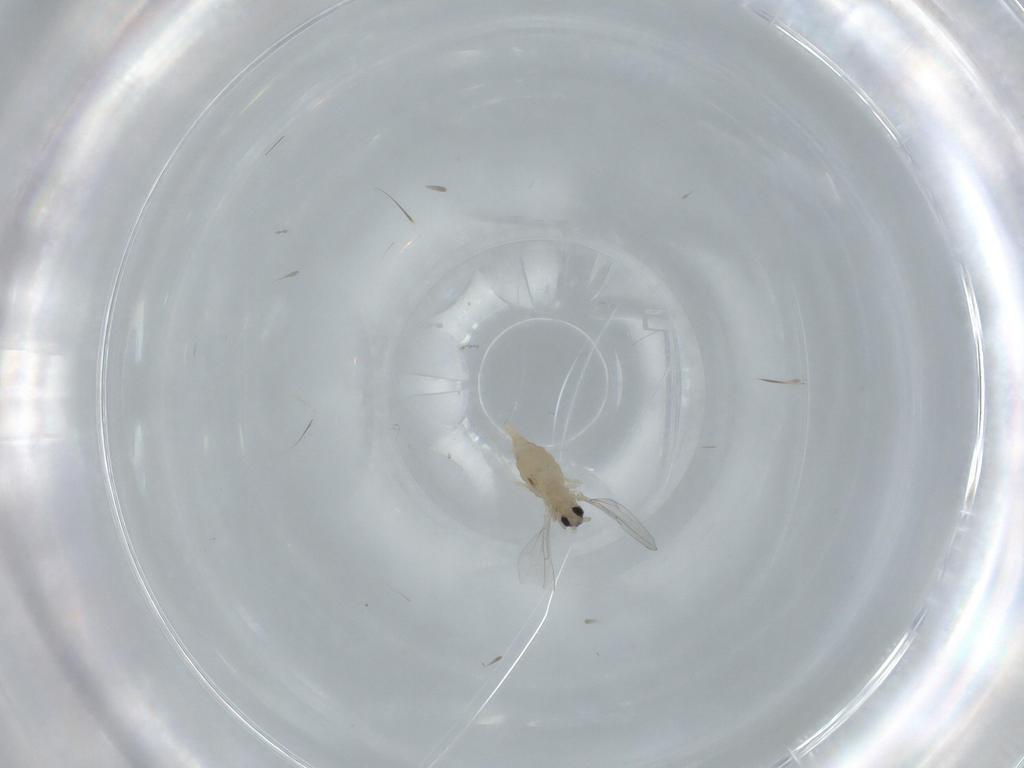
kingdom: Animalia
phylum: Arthropoda
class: Insecta
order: Diptera
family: Cecidomyiidae
